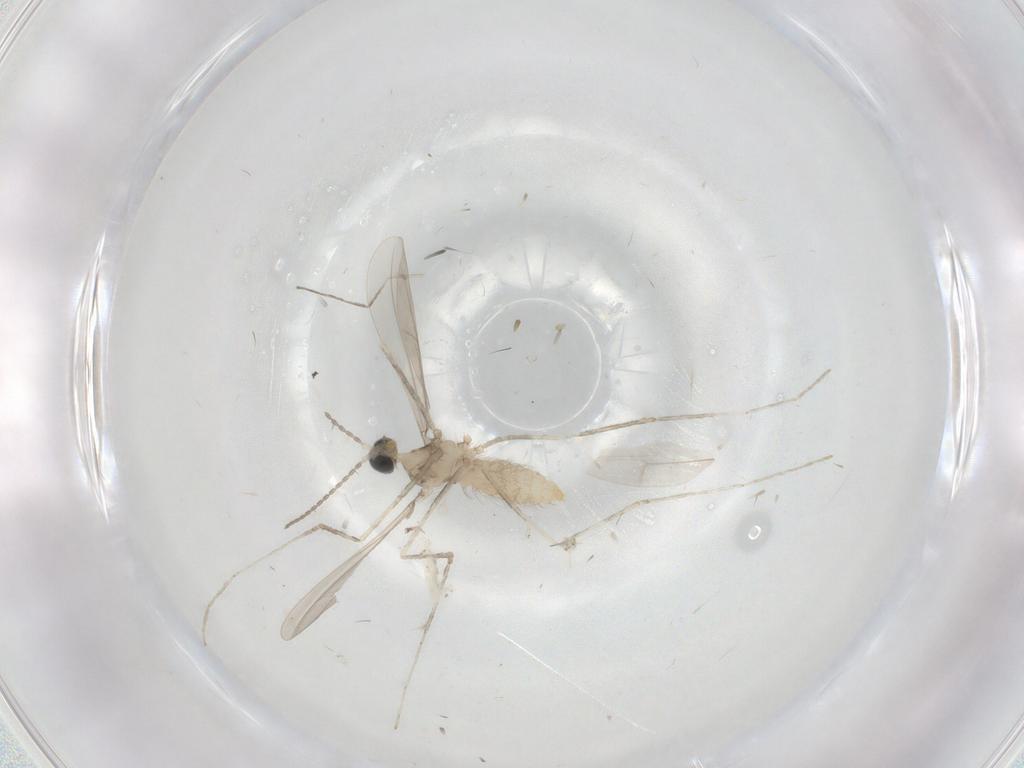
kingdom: Animalia
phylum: Arthropoda
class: Insecta
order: Diptera
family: Cecidomyiidae
